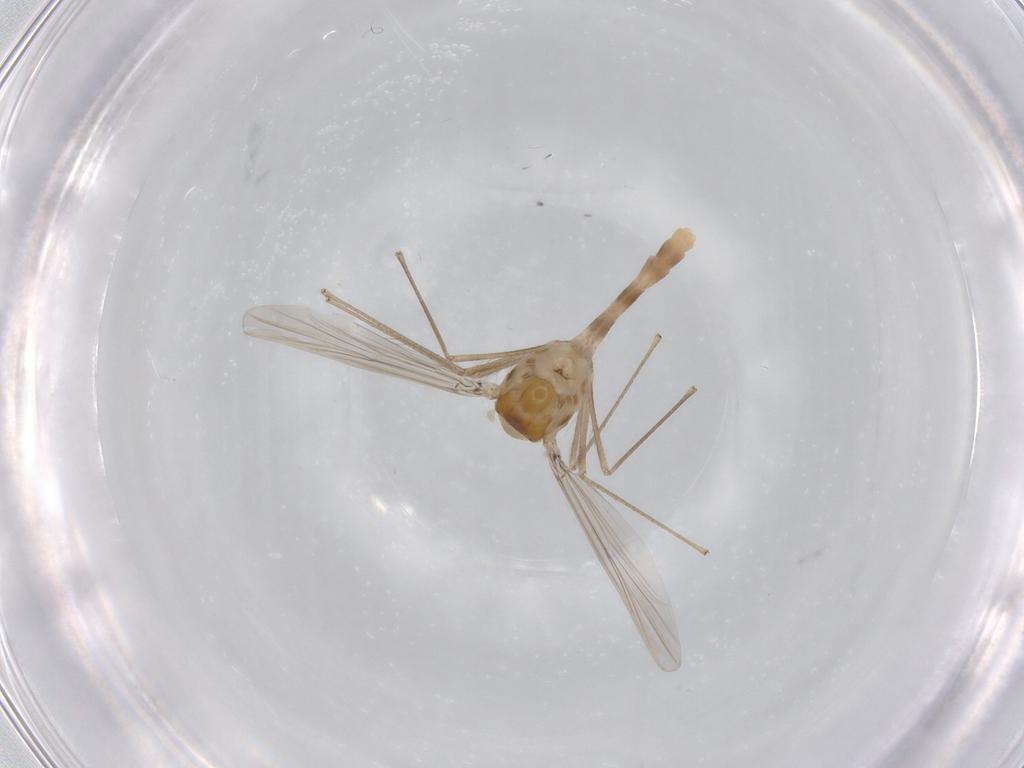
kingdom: Animalia
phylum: Arthropoda
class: Insecta
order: Diptera
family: Chironomidae
